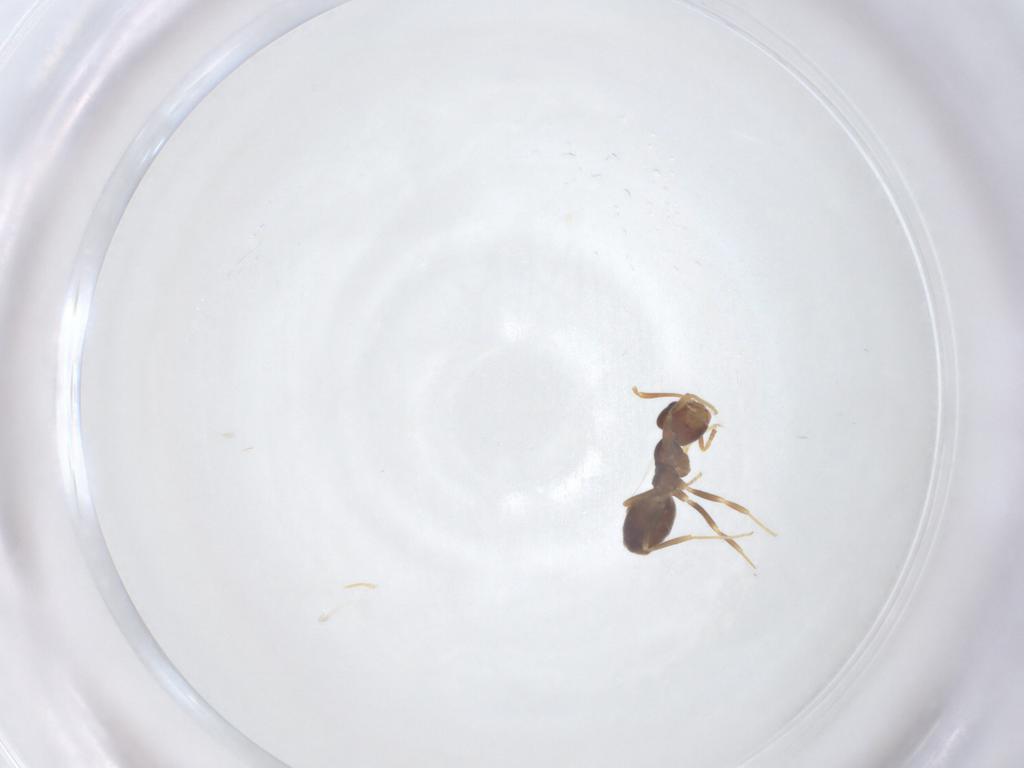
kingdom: Animalia
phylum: Arthropoda
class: Insecta
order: Hymenoptera
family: Formicidae
